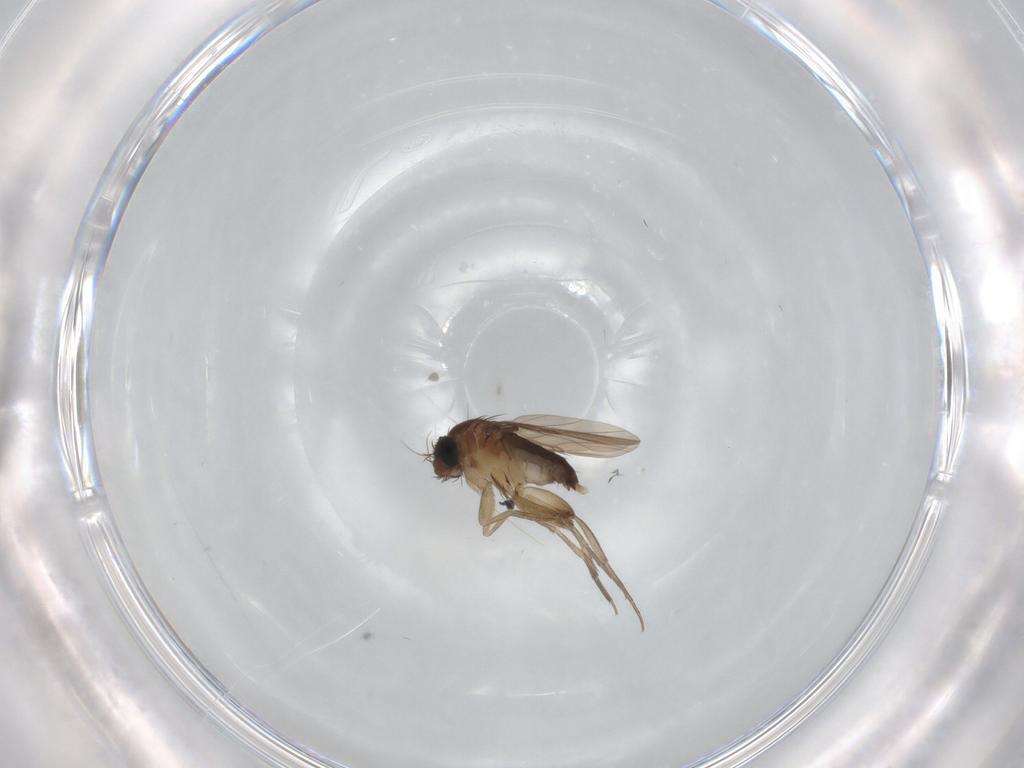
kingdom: Animalia
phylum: Arthropoda
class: Insecta
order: Diptera
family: Phoridae
